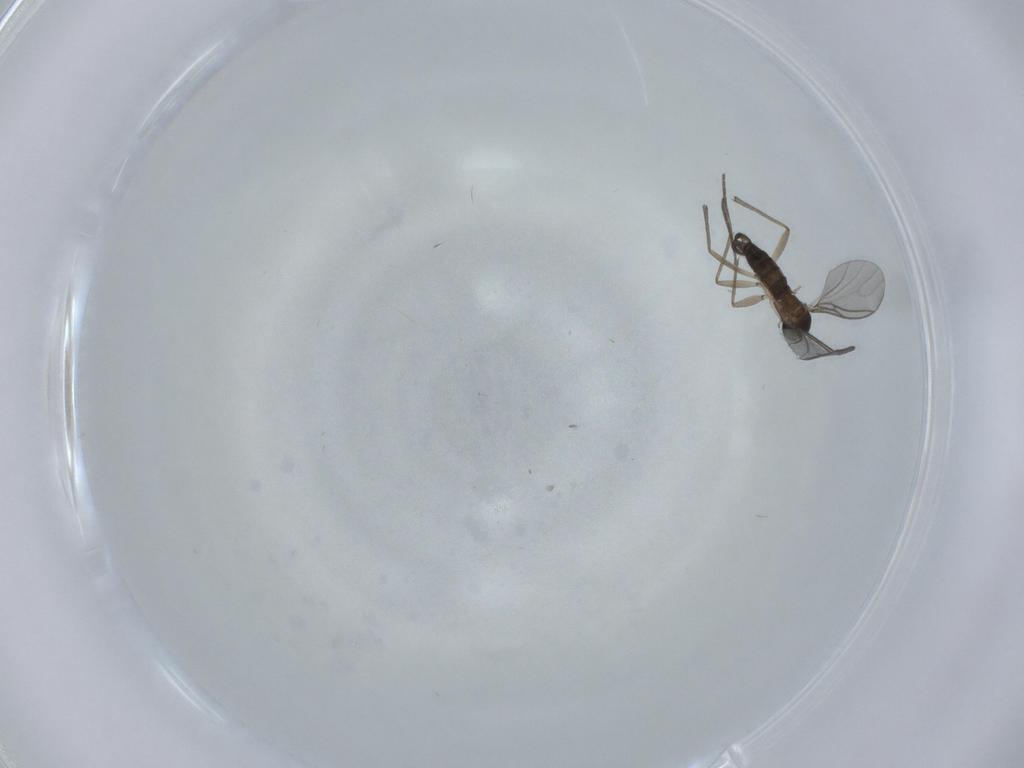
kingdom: Animalia
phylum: Arthropoda
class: Insecta
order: Diptera
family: Sciaridae
